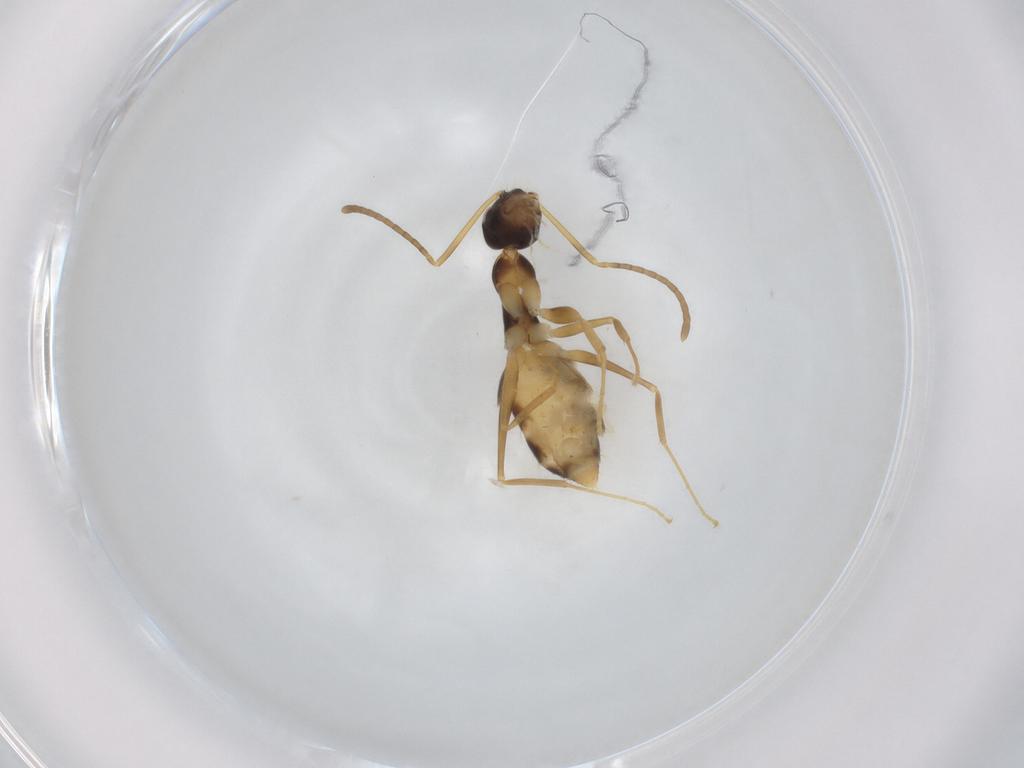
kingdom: Animalia
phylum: Arthropoda
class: Insecta
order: Hymenoptera
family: Formicidae
